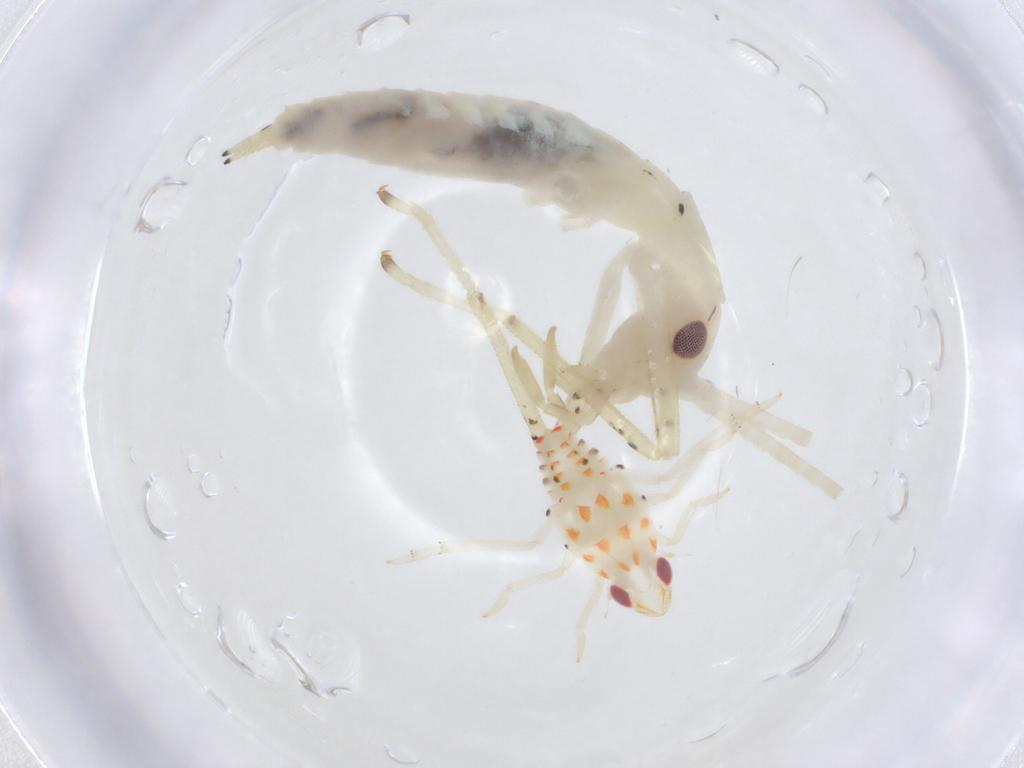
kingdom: Animalia
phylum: Arthropoda
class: Insecta
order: Orthoptera
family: Oecanthidae
